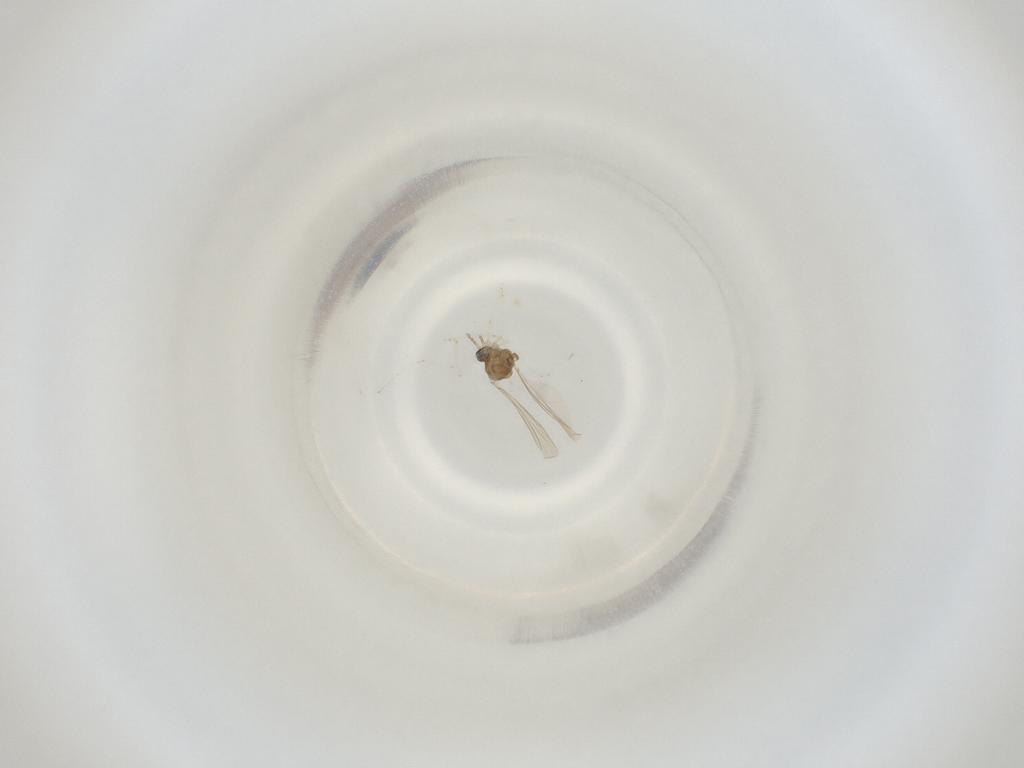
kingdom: Animalia
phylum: Arthropoda
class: Insecta
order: Diptera
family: Cecidomyiidae
